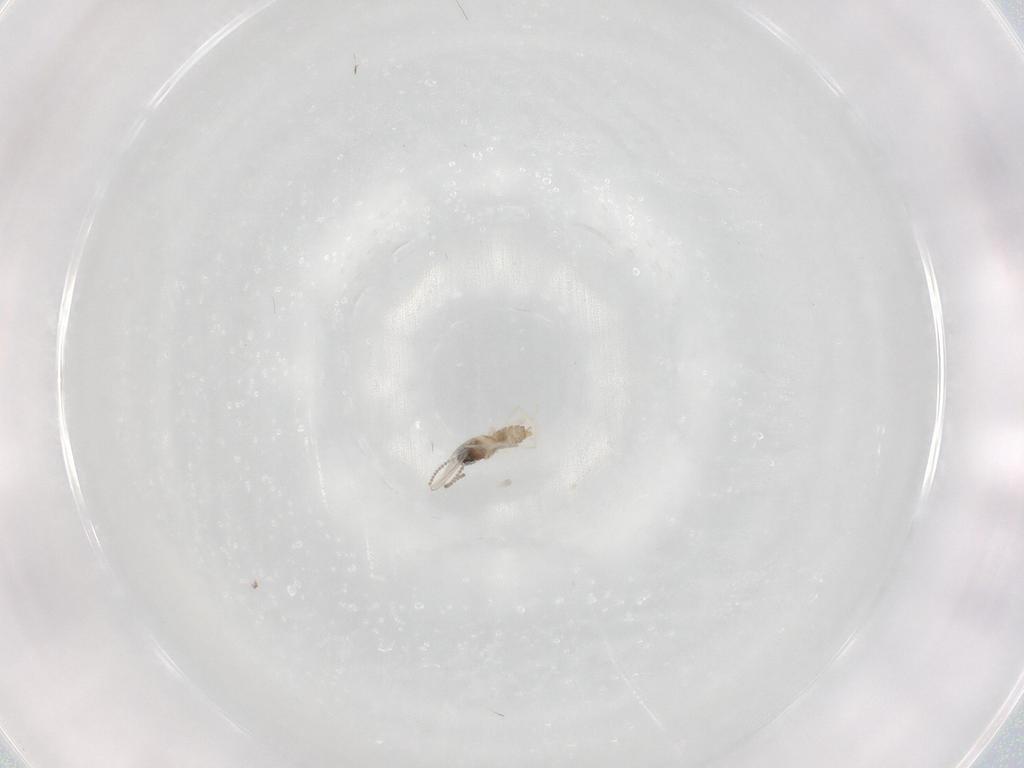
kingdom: Animalia
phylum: Arthropoda
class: Insecta
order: Diptera
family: Cecidomyiidae
